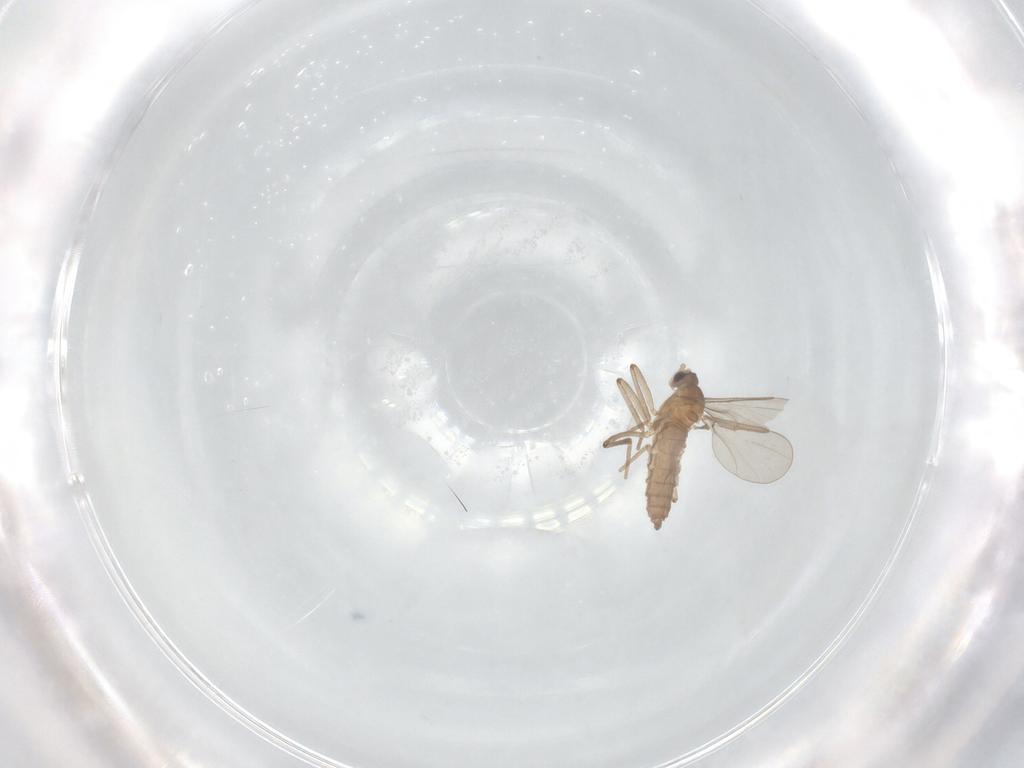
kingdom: Animalia
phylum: Arthropoda
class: Insecta
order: Diptera
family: Cecidomyiidae
